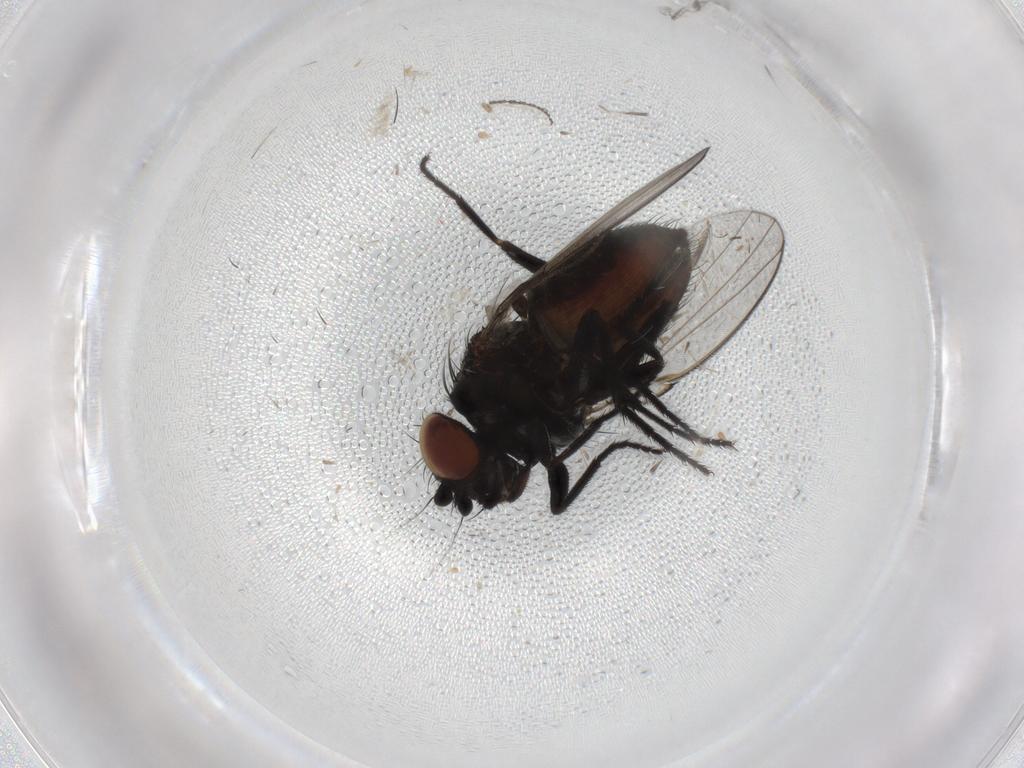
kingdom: Animalia
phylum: Arthropoda
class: Insecta
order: Diptera
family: Milichiidae
